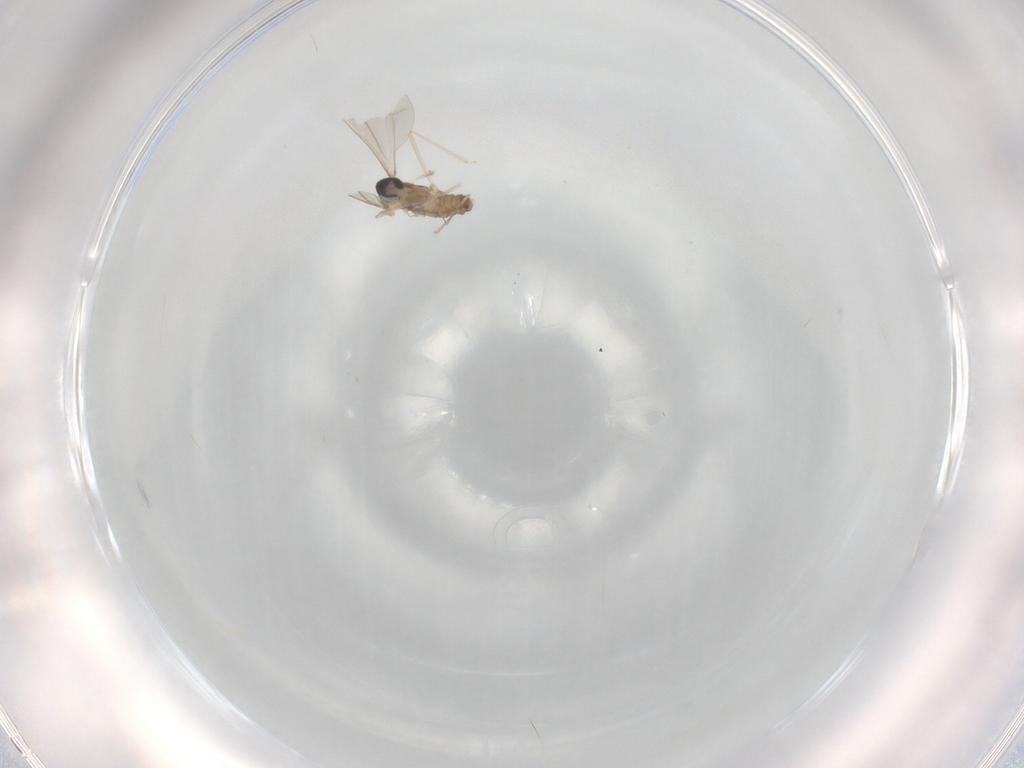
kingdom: Animalia
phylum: Arthropoda
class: Insecta
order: Diptera
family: Cecidomyiidae
